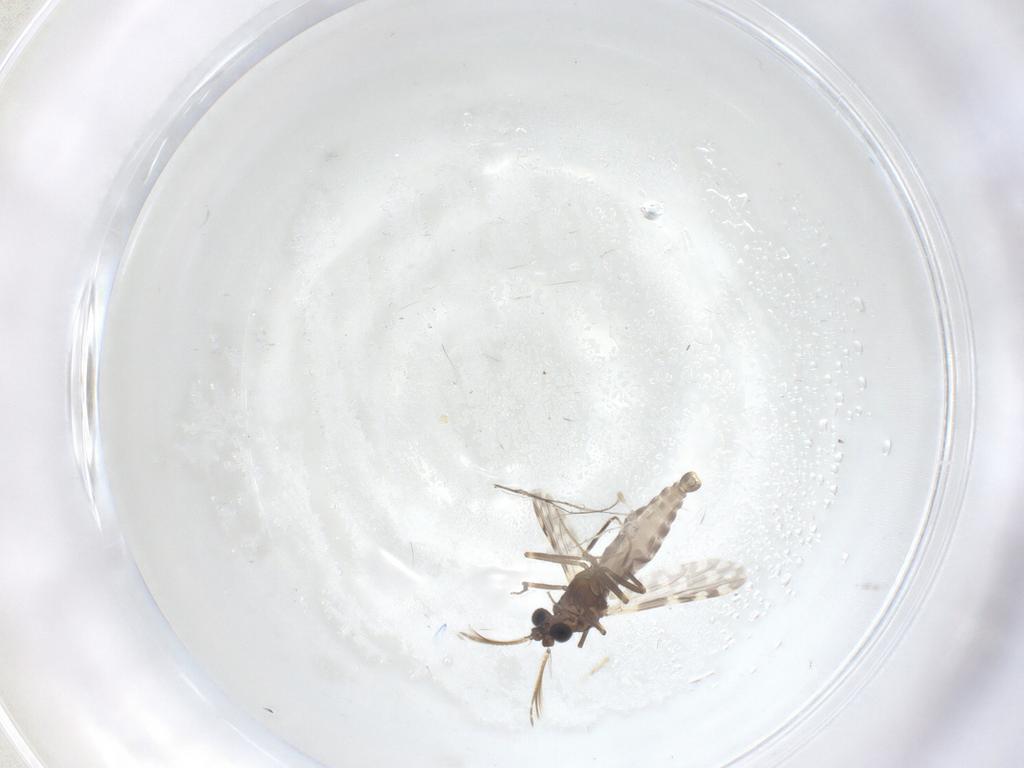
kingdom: Animalia
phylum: Arthropoda
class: Insecta
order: Diptera
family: Ceratopogonidae
